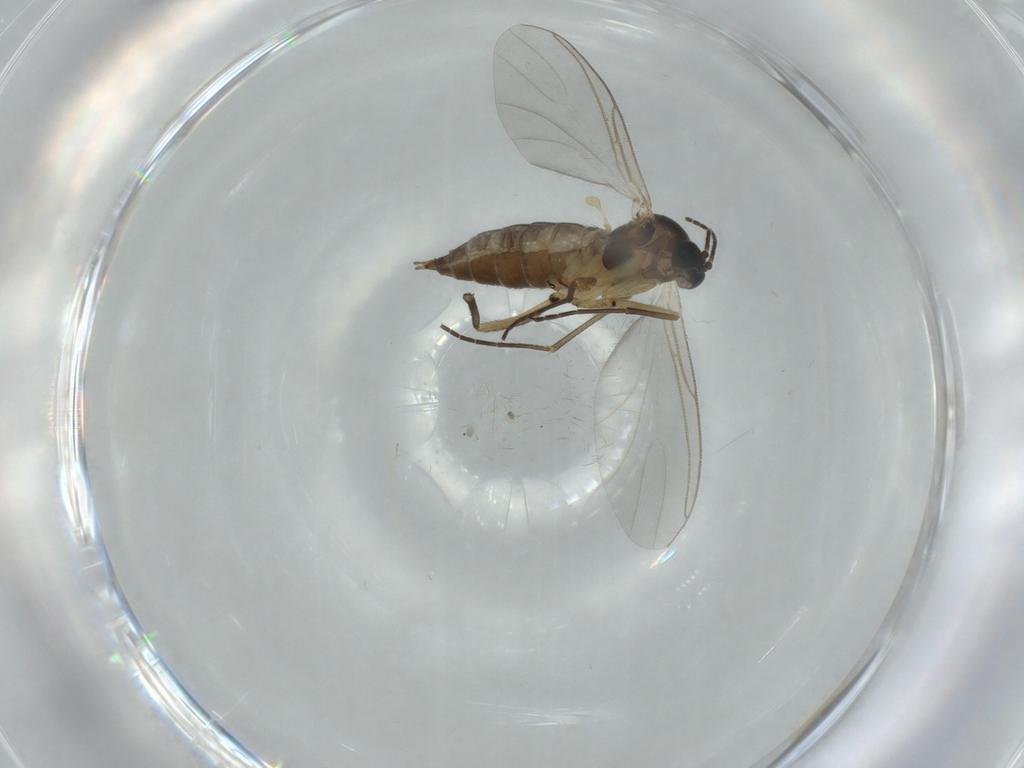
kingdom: Animalia
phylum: Arthropoda
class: Insecta
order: Diptera
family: Sciaridae
